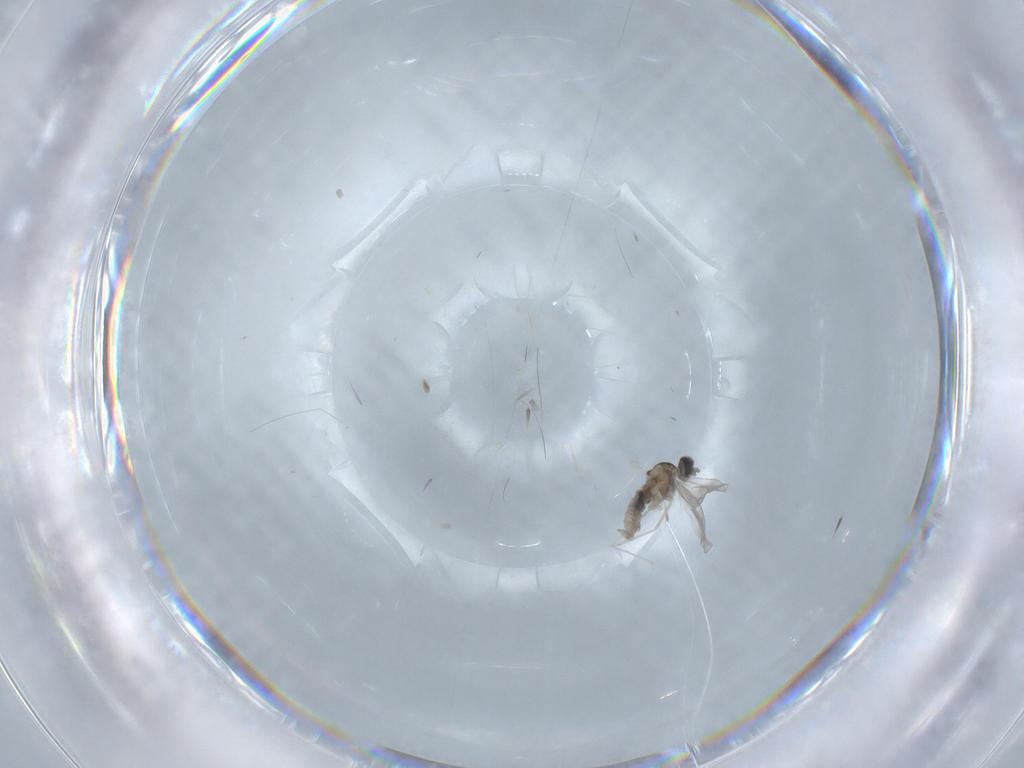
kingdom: Animalia
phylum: Arthropoda
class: Insecta
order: Diptera
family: Cecidomyiidae
